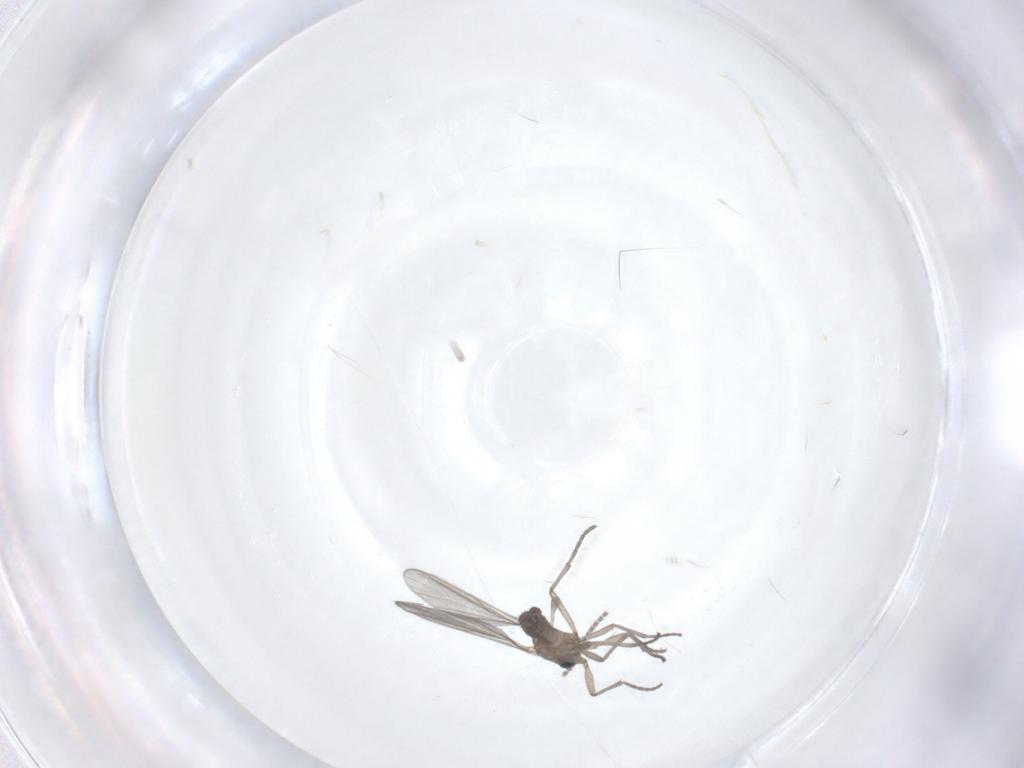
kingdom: Animalia
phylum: Arthropoda
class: Insecta
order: Diptera
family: Sciaridae
